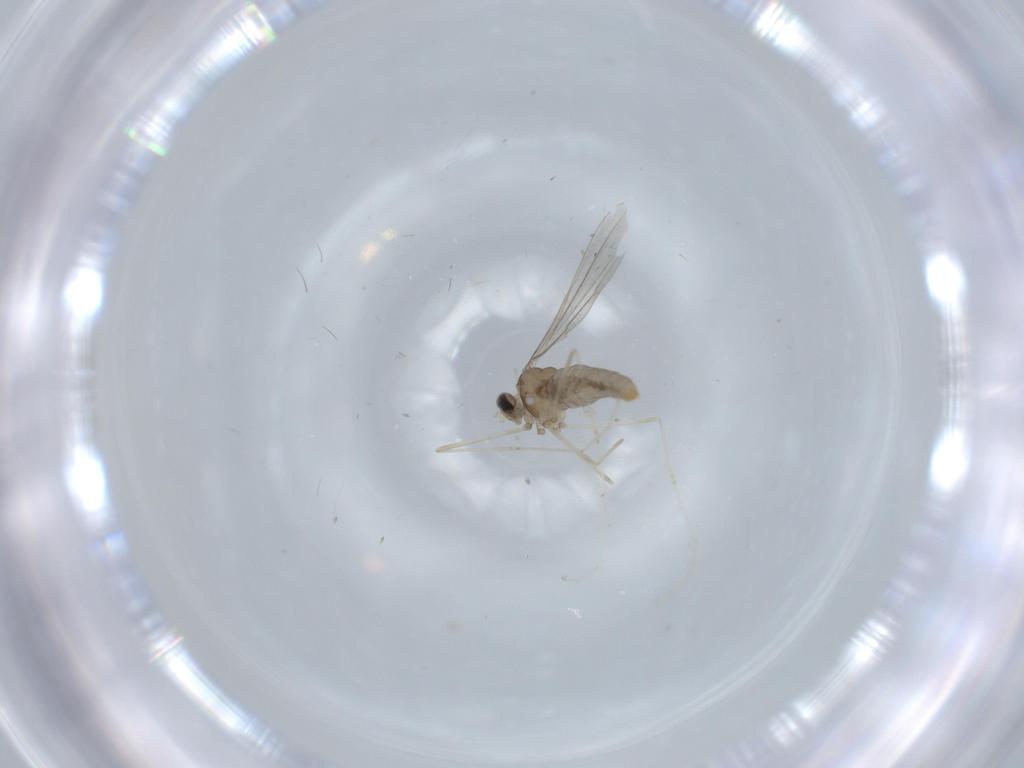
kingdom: Animalia
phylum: Arthropoda
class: Insecta
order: Diptera
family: Cecidomyiidae
